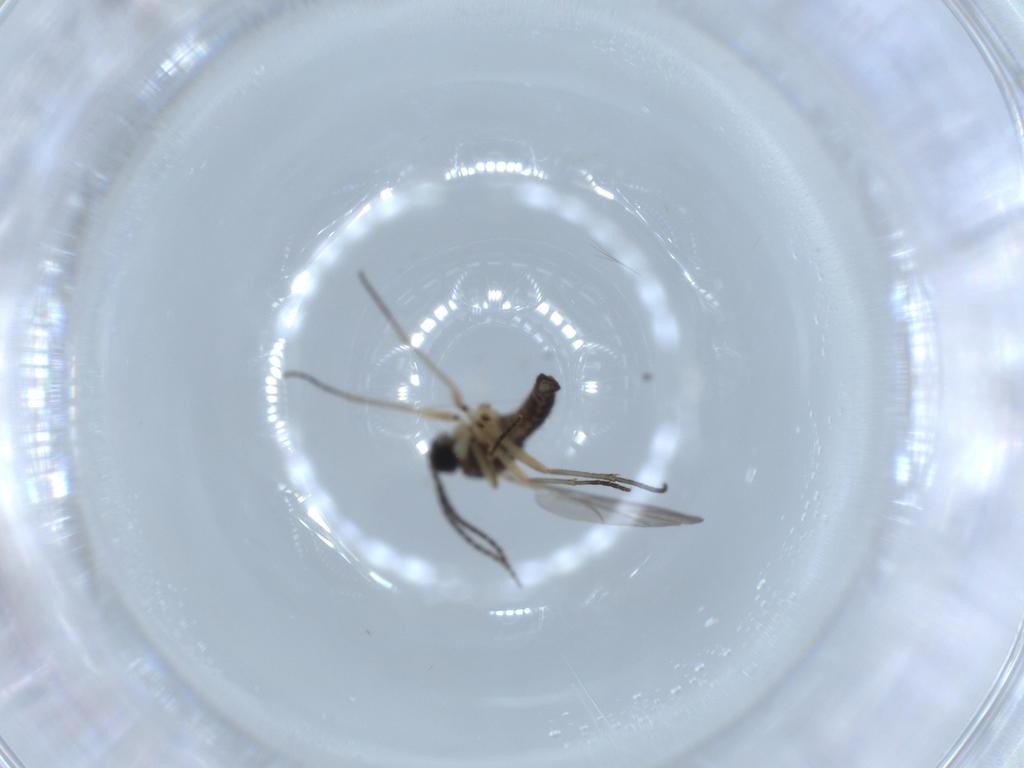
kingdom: Animalia
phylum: Arthropoda
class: Insecta
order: Diptera
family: Sciaridae
